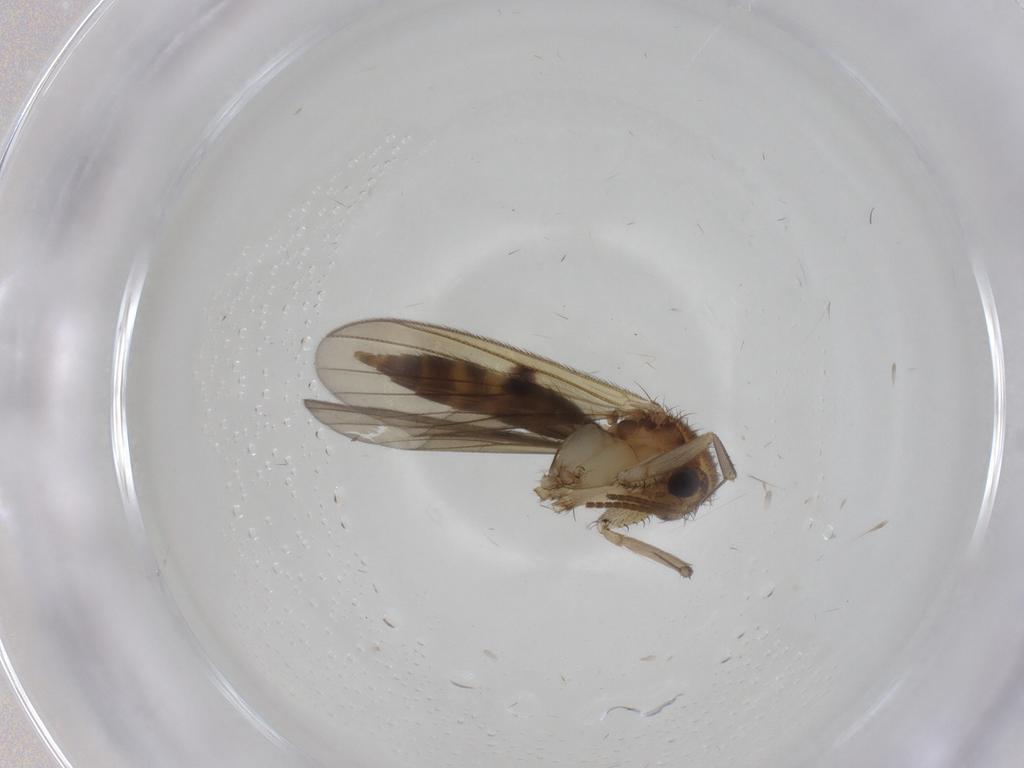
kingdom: Animalia
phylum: Arthropoda
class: Insecta
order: Diptera
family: Mycetophilidae
